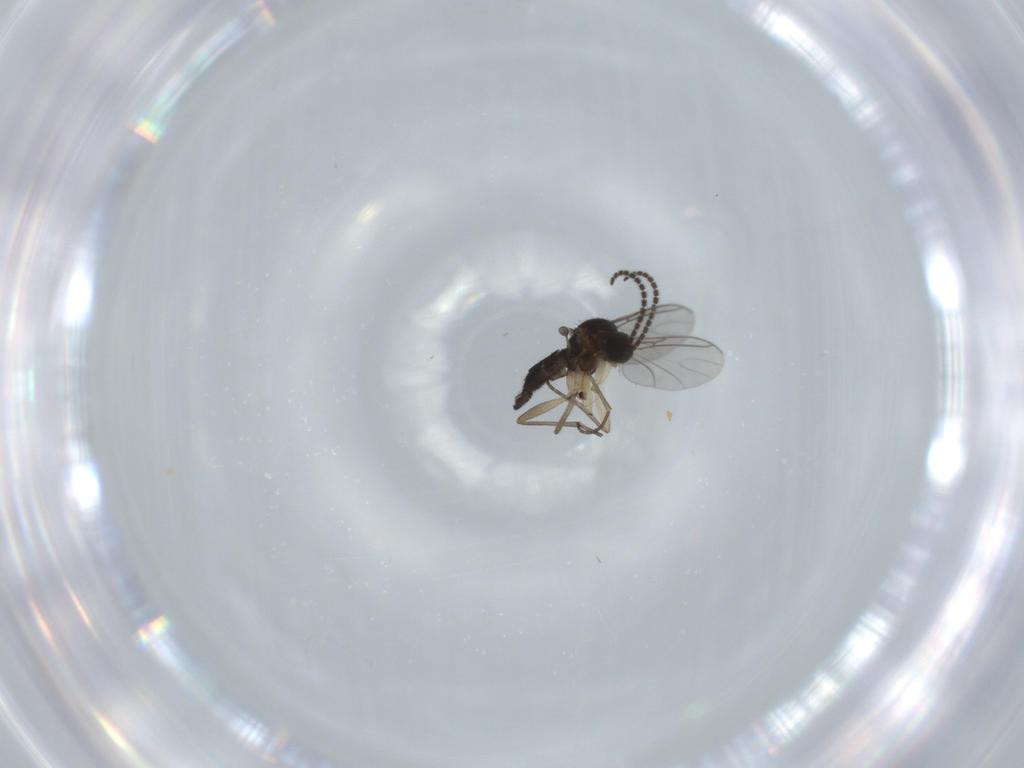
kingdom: Animalia
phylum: Arthropoda
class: Insecta
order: Diptera
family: Sciaridae
